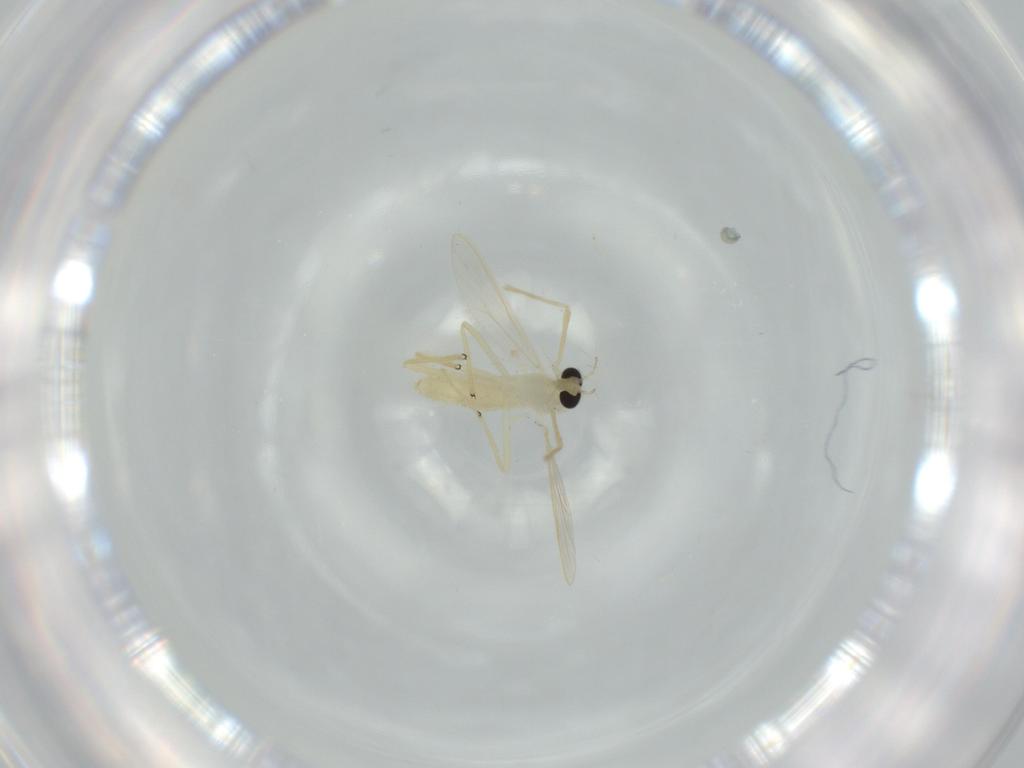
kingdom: Animalia
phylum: Arthropoda
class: Insecta
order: Diptera
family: Chironomidae
